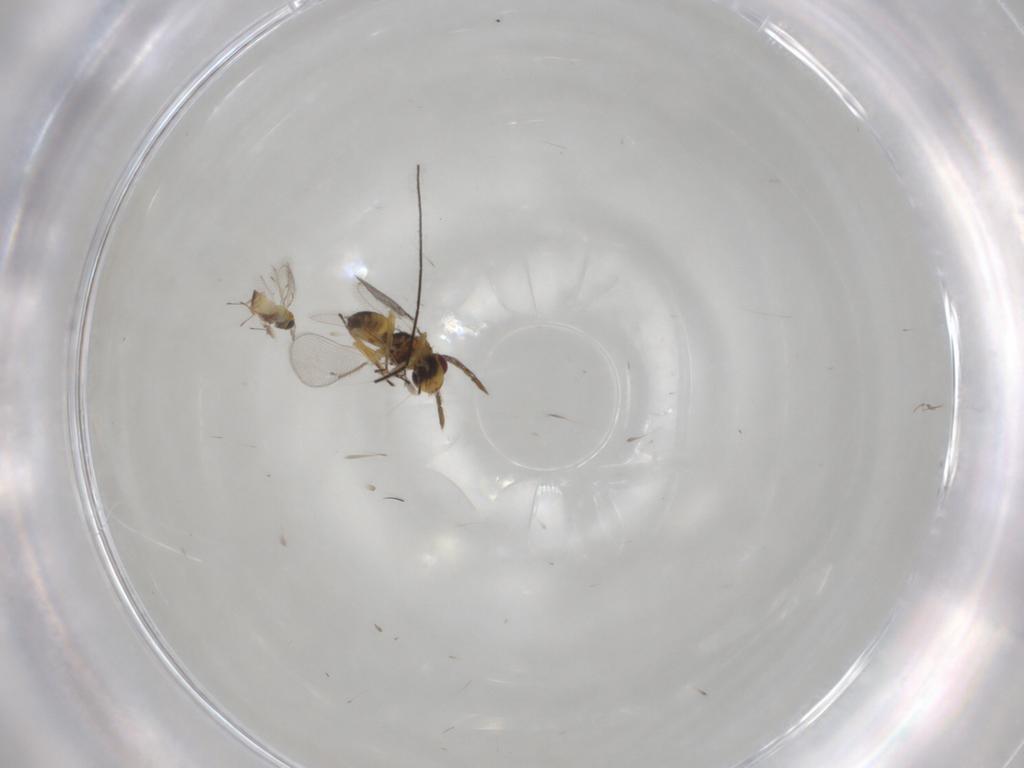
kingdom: Animalia
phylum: Arthropoda
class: Insecta
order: Hymenoptera
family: Eulophidae
